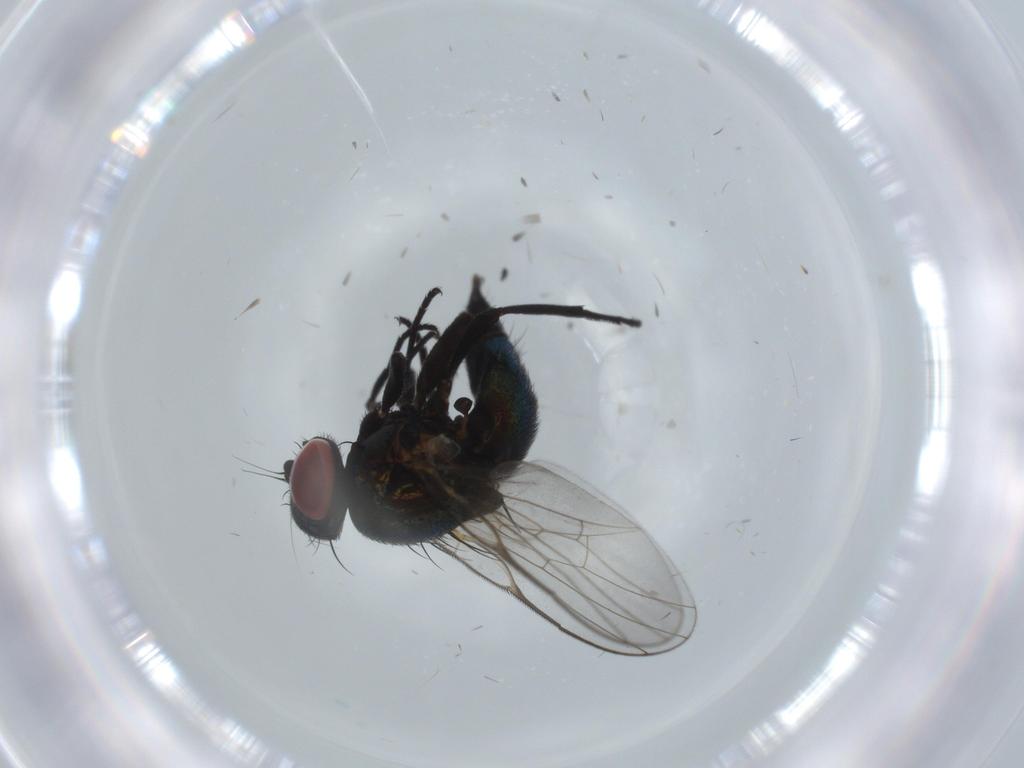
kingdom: Animalia
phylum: Arthropoda
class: Insecta
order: Diptera
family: Agromyzidae
